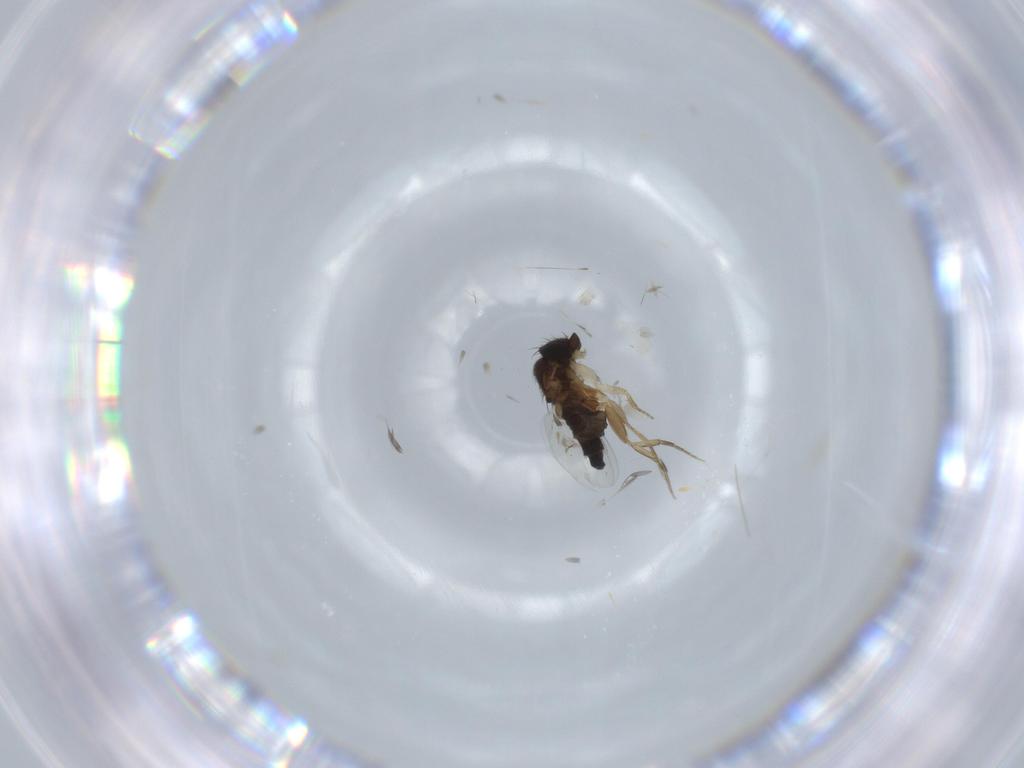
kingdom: Animalia
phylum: Arthropoda
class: Insecta
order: Diptera
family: Phoridae
